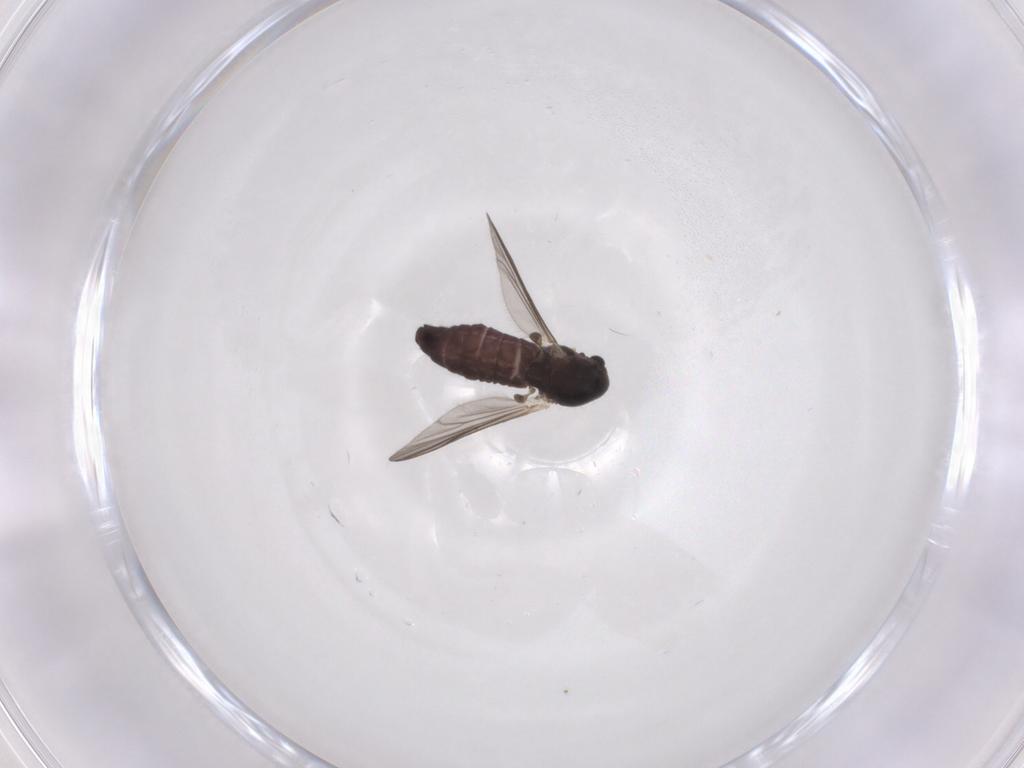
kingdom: Animalia
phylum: Arthropoda
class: Insecta
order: Diptera
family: Chironomidae
